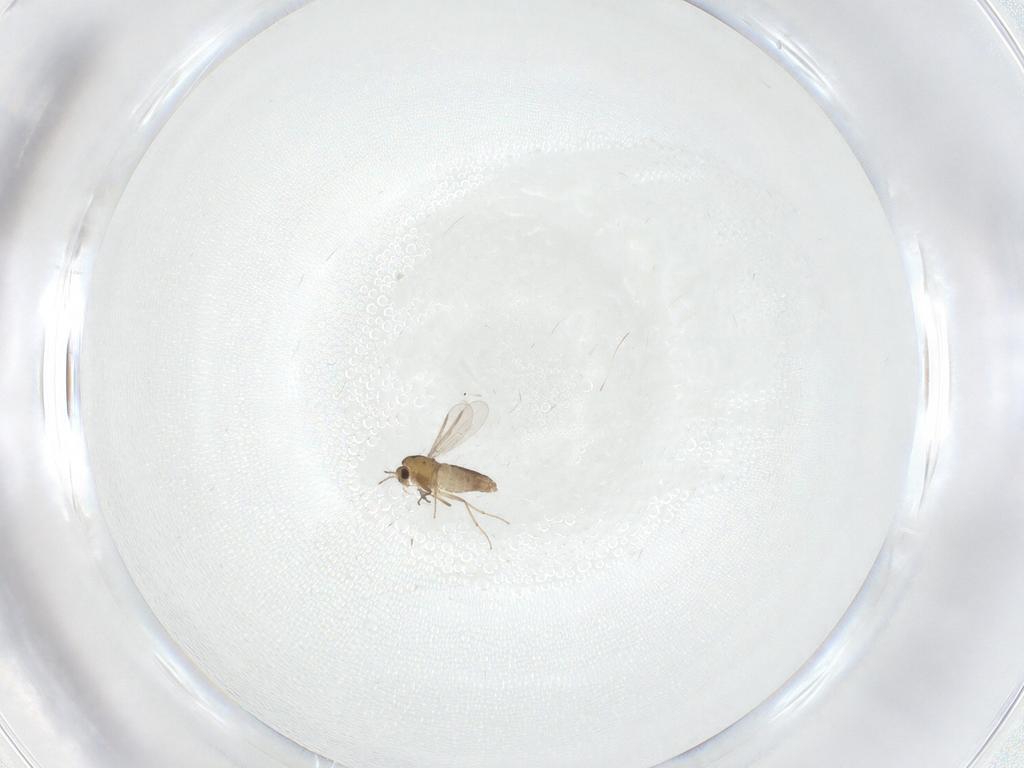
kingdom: Animalia
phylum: Arthropoda
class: Insecta
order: Diptera
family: Chironomidae
